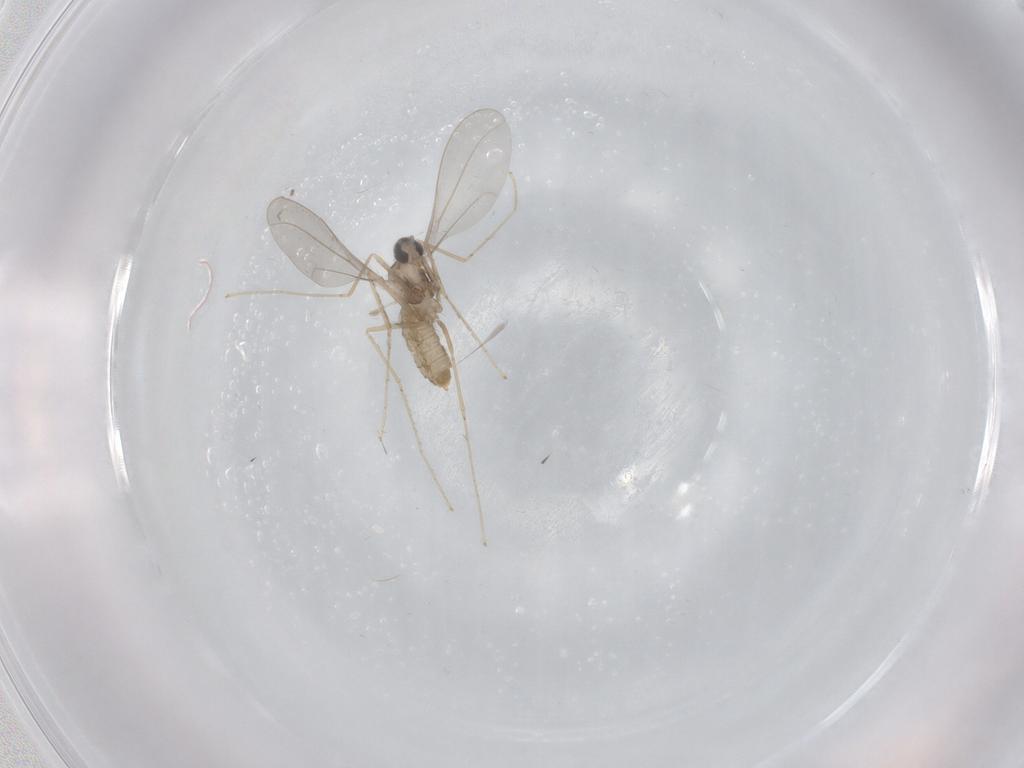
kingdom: Animalia
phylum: Arthropoda
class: Insecta
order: Diptera
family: Cecidomyiidae
